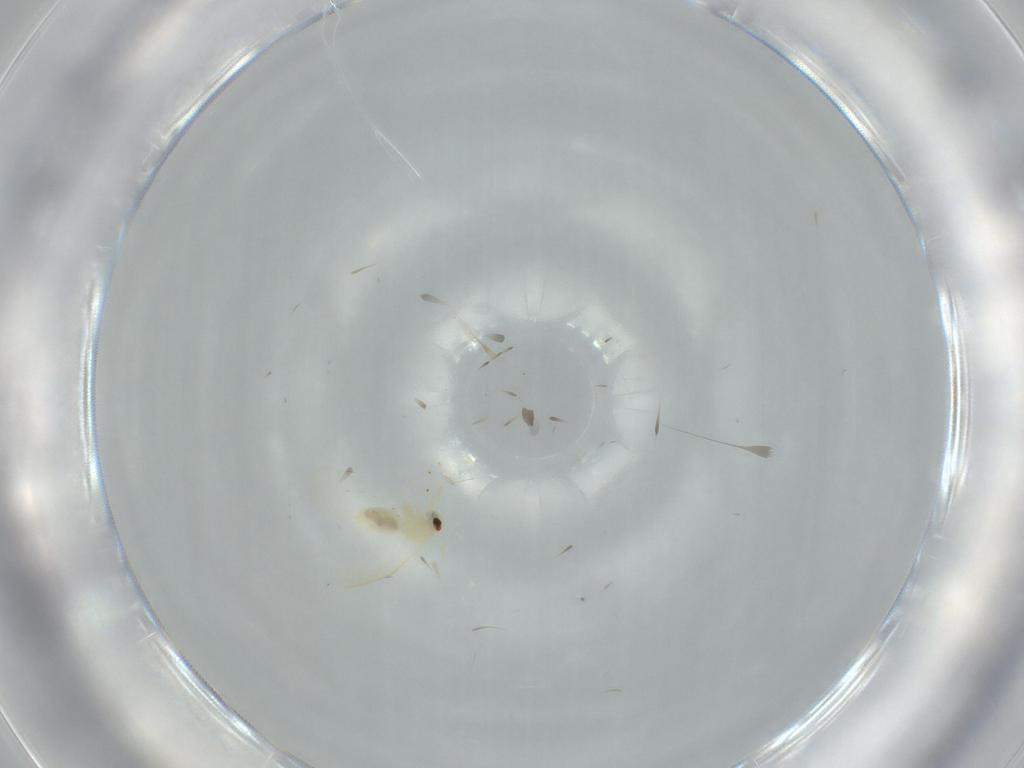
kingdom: Animalia
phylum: Arthropoda
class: Insecta
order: Hemiptera
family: Aleyrodidae
